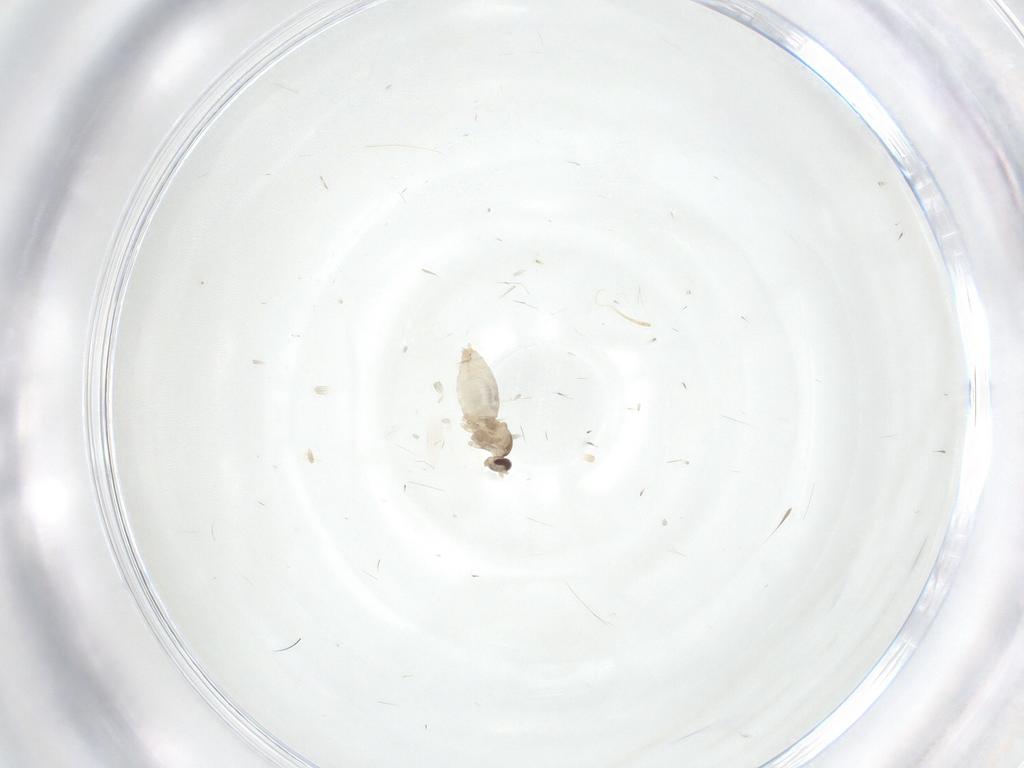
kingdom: Animalia
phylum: Arthropoda
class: Insecta
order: Diptera
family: Cecidomyiidae
